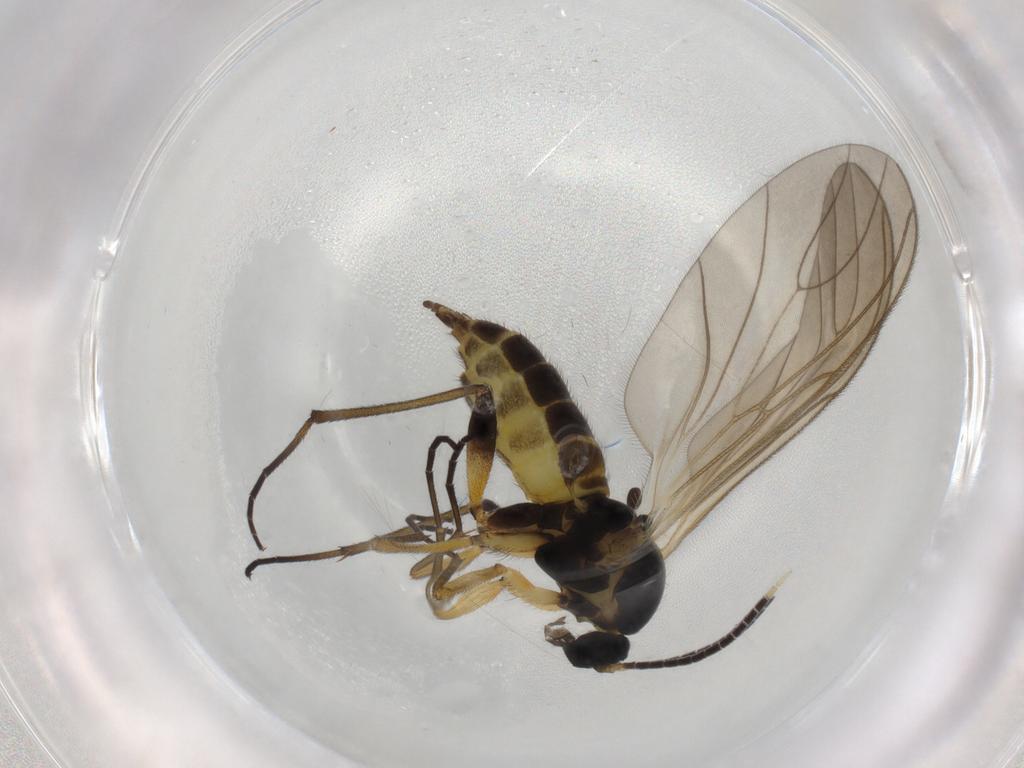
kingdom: Animalia
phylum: Arthropoda
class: Insecta
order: Diptera
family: Sciaridae
